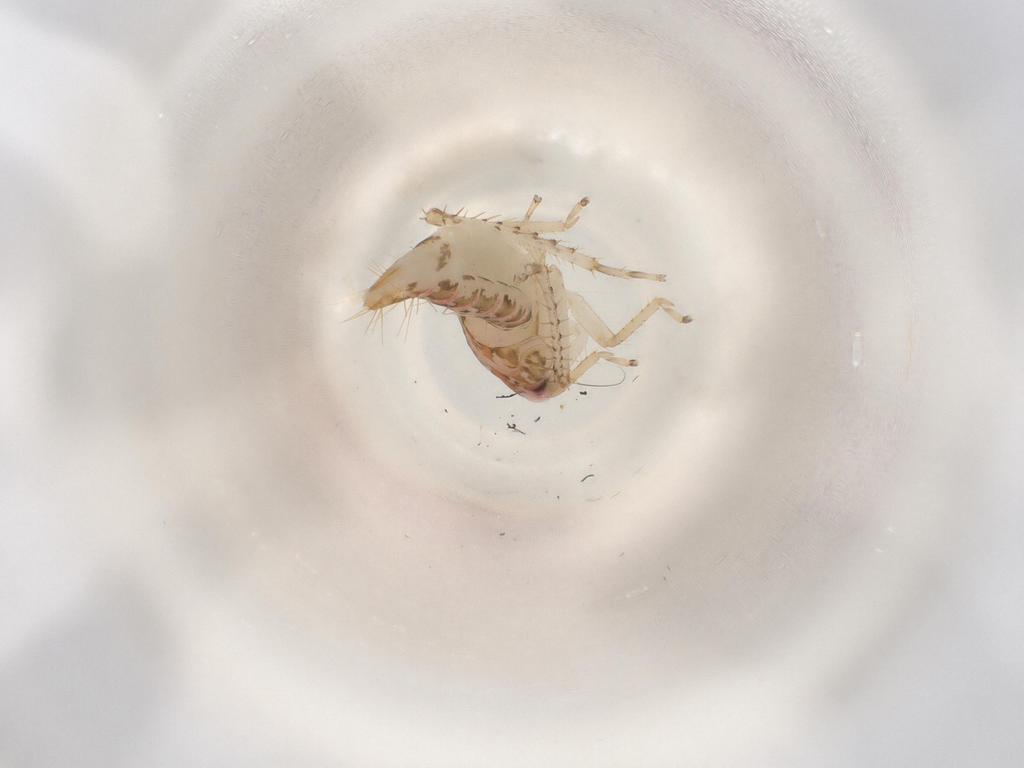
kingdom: Animalia
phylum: Arthropoda
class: Insecta
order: Hemiptera
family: Cicadellidae
